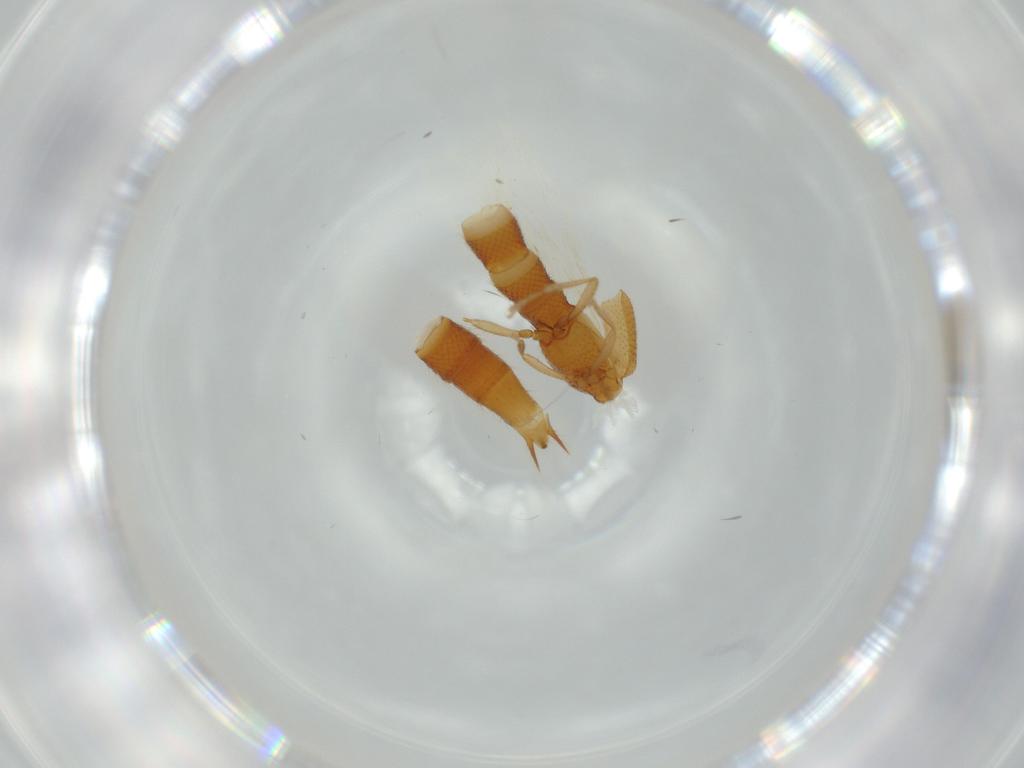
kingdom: Animalia
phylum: Arthropoda
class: Insecta
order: Coleoptera
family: Staphylinidae
